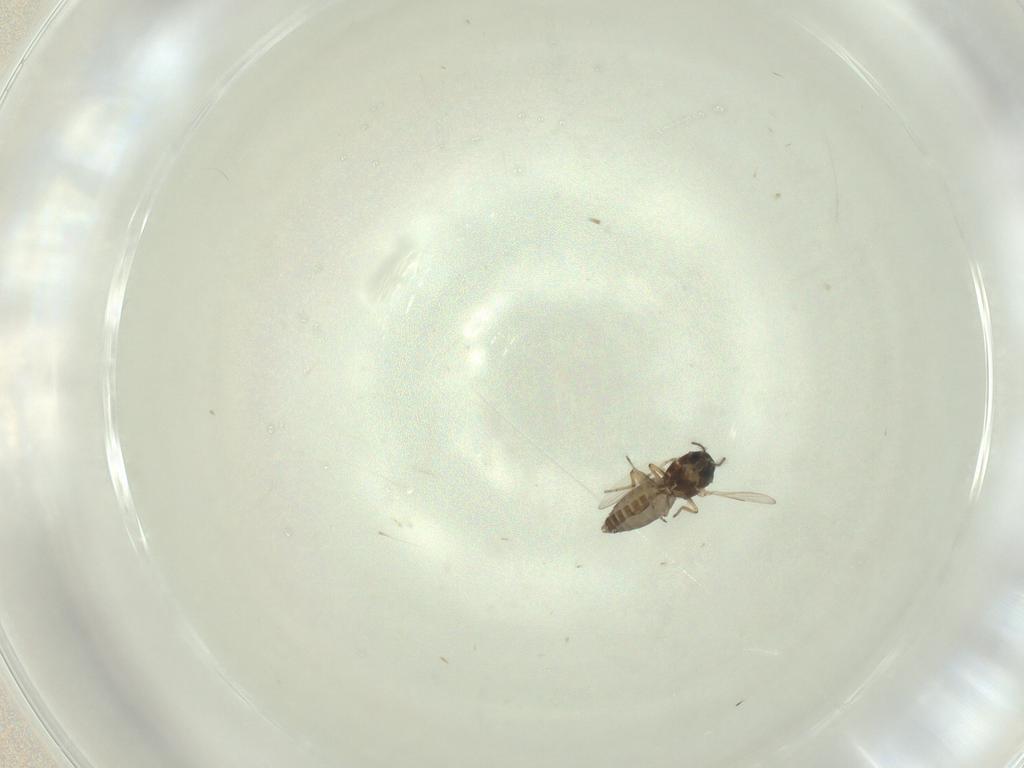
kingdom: Animalia
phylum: Arthropoda
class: Insecta
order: Diptera
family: Ceratopogonidae
